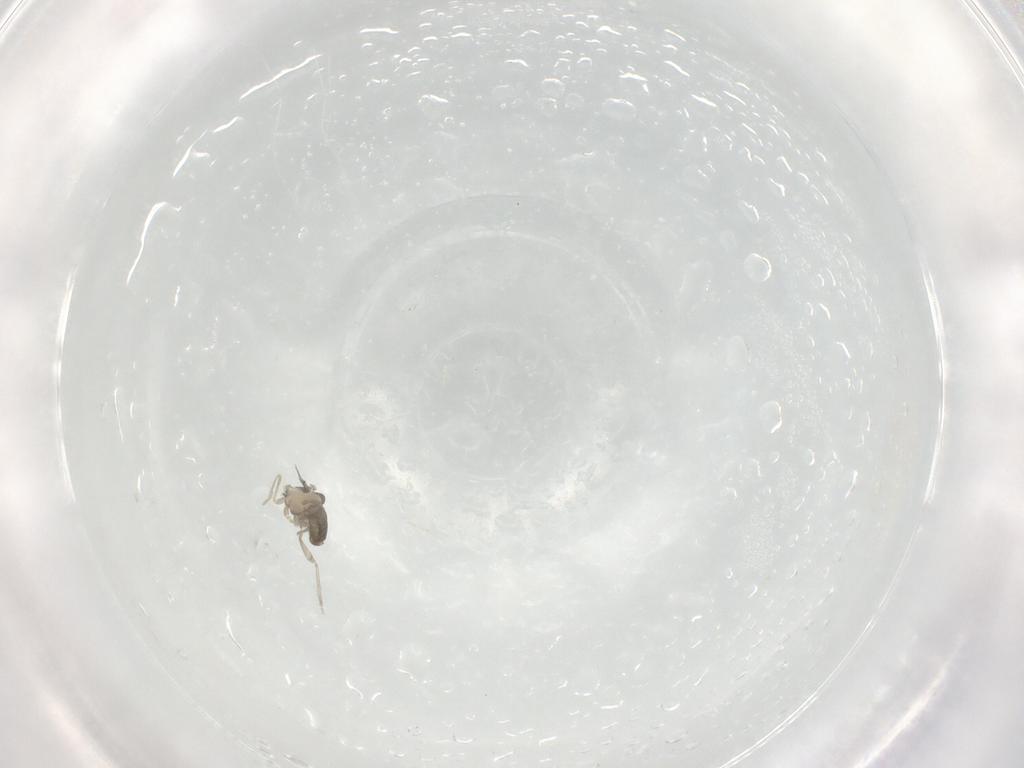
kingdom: Animalia
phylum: Arthropoda
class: Insecta
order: Diptera
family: Cecidomyiidae
